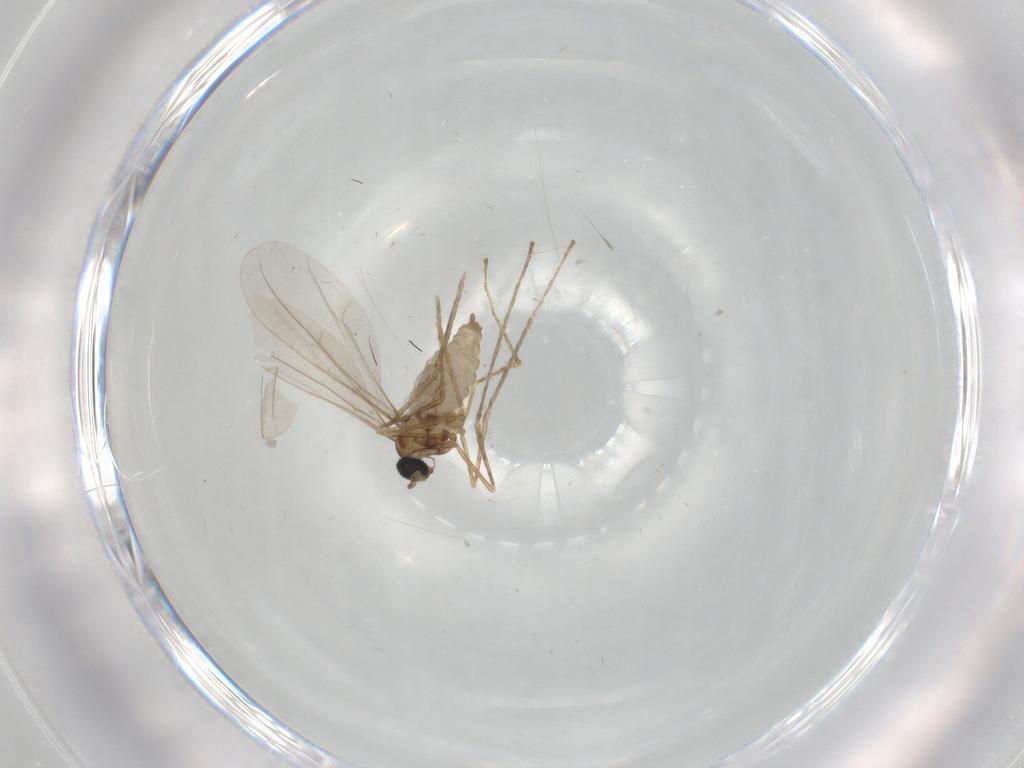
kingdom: Animalia
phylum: Arthropoda
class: Insecta
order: Diptera
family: Cecidomyiidae
